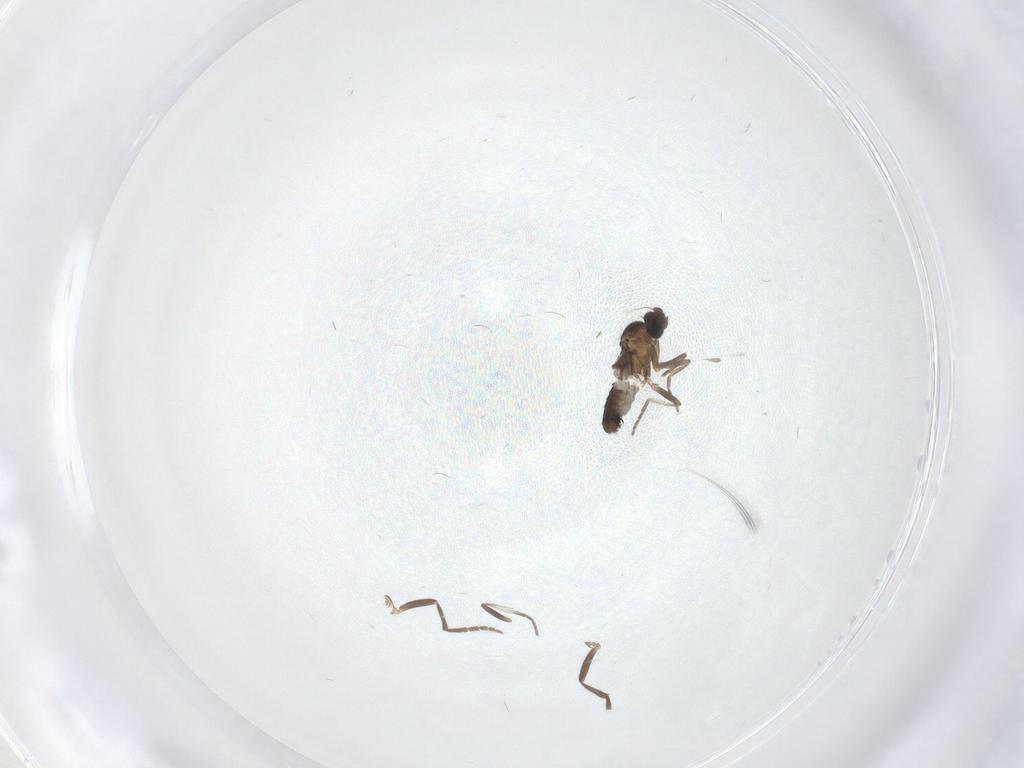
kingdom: Animalia
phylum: Arthropoda
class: Insecta
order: Diptera
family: Phoridae
